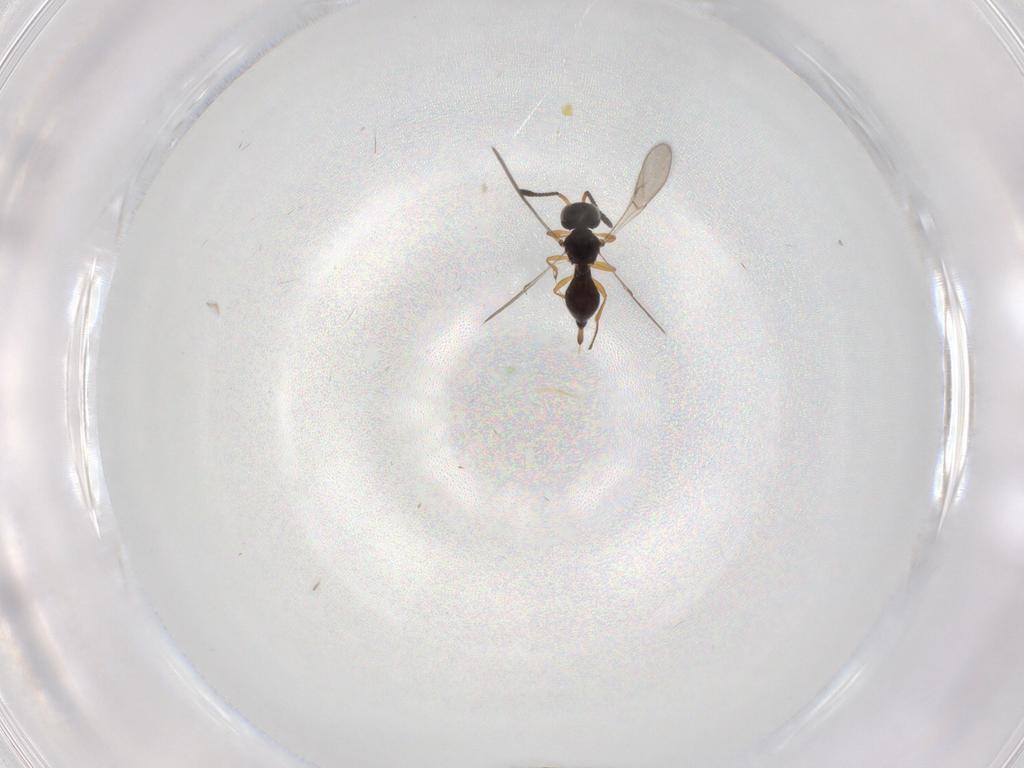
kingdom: Animalia
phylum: Arthropoda
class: Insecta
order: Hymenoptera
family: Scelionidae
